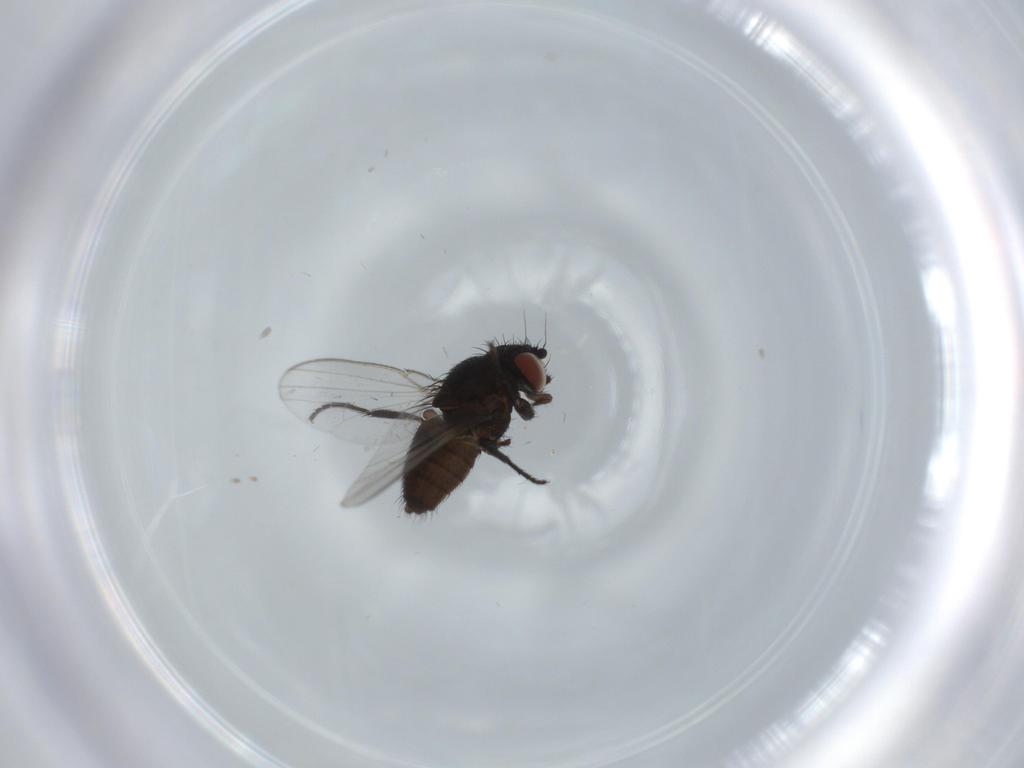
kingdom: Animalia
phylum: Arthropoda
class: Insecta
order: Diptera
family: Milichiidae
